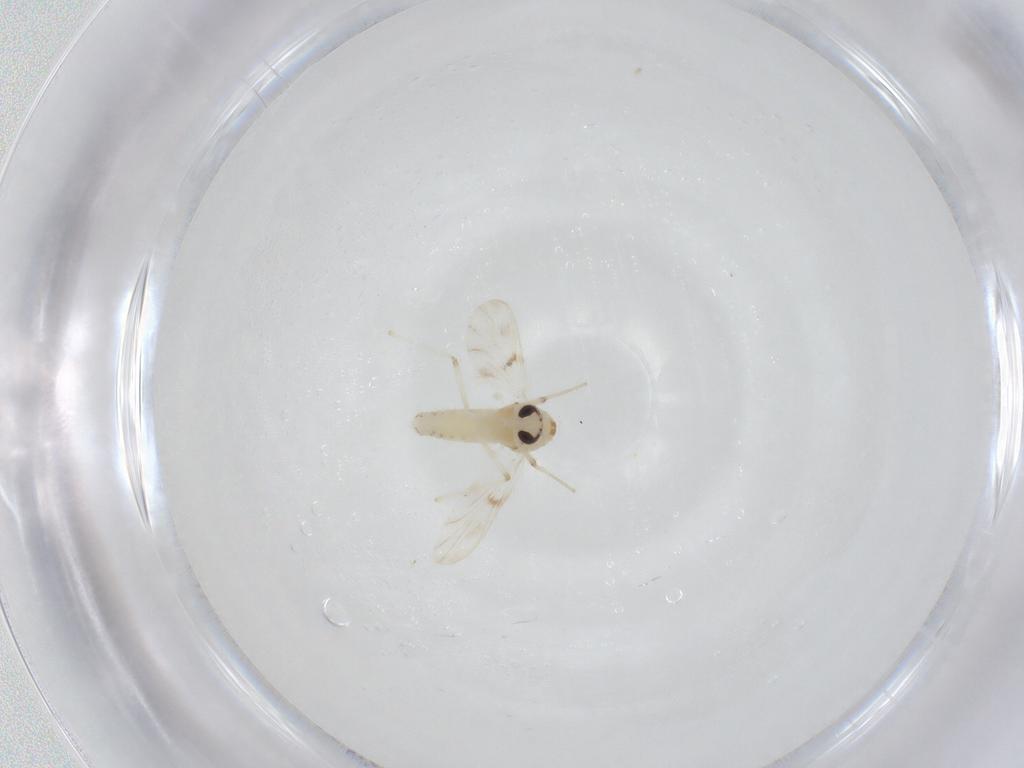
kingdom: Animalia
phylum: Arthropoda
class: Insecta
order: Diptera
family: Chironomidae
